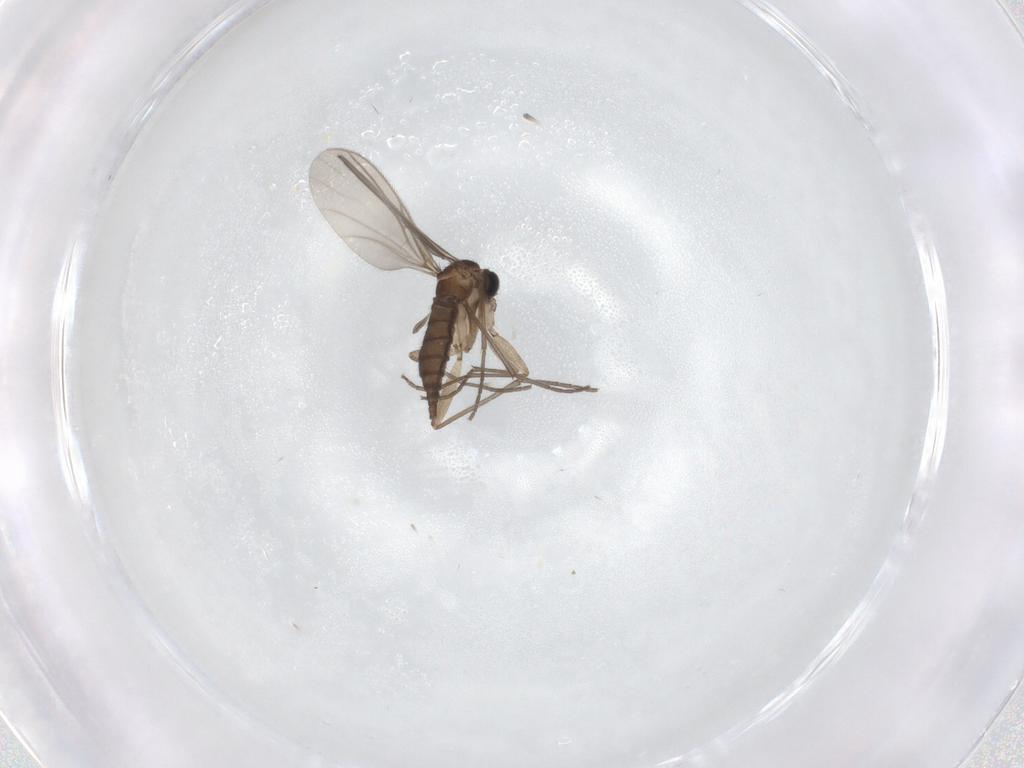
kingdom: Animalia
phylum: Arthropoda
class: Insecta
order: Diptera
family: Sciaridae
